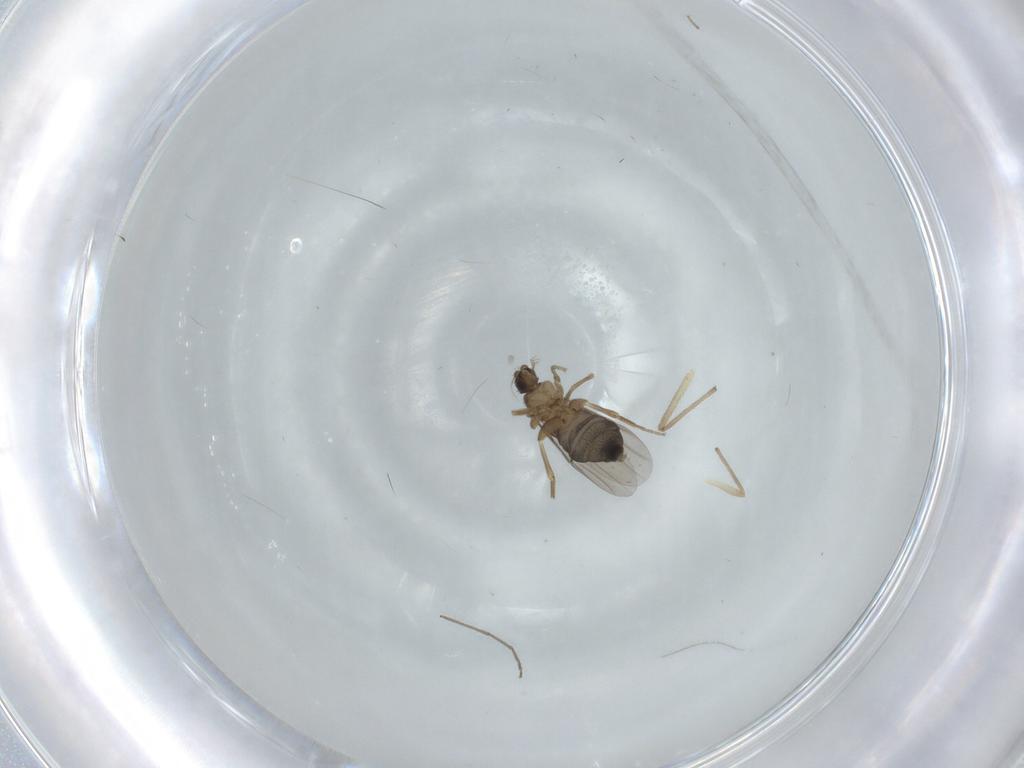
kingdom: Animalia
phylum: Arthropoda
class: Insecta
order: Diptera
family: Phoridae
